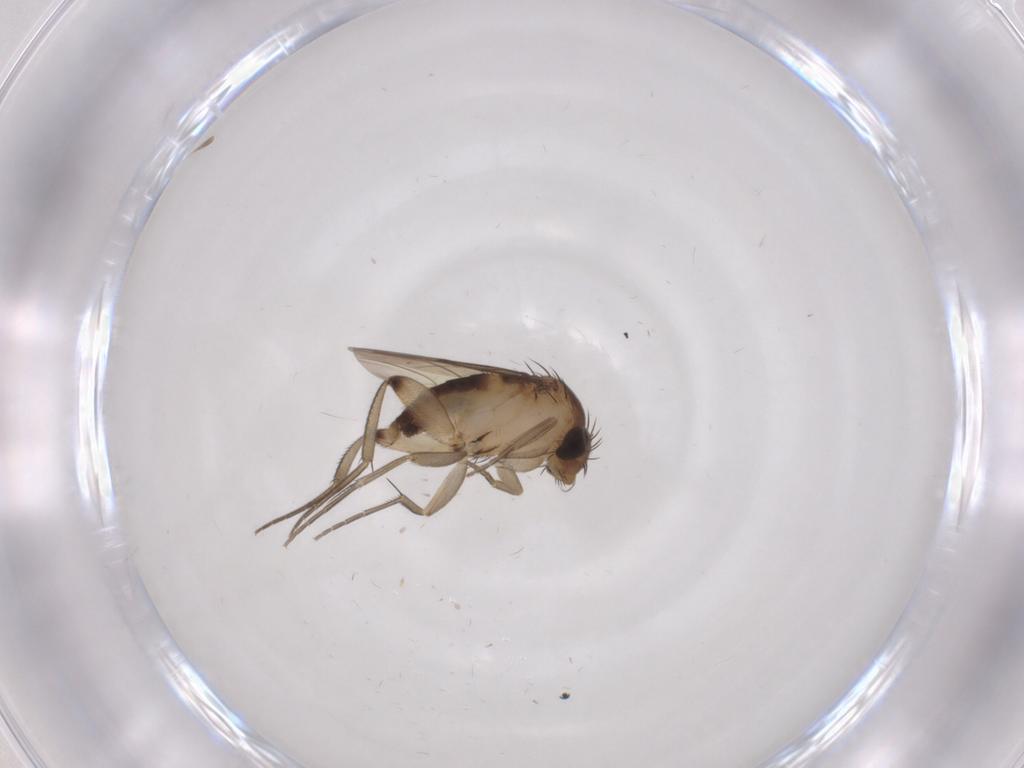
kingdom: Animalia
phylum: Arthropoda
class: Insecta
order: Diptera
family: Phoridae
